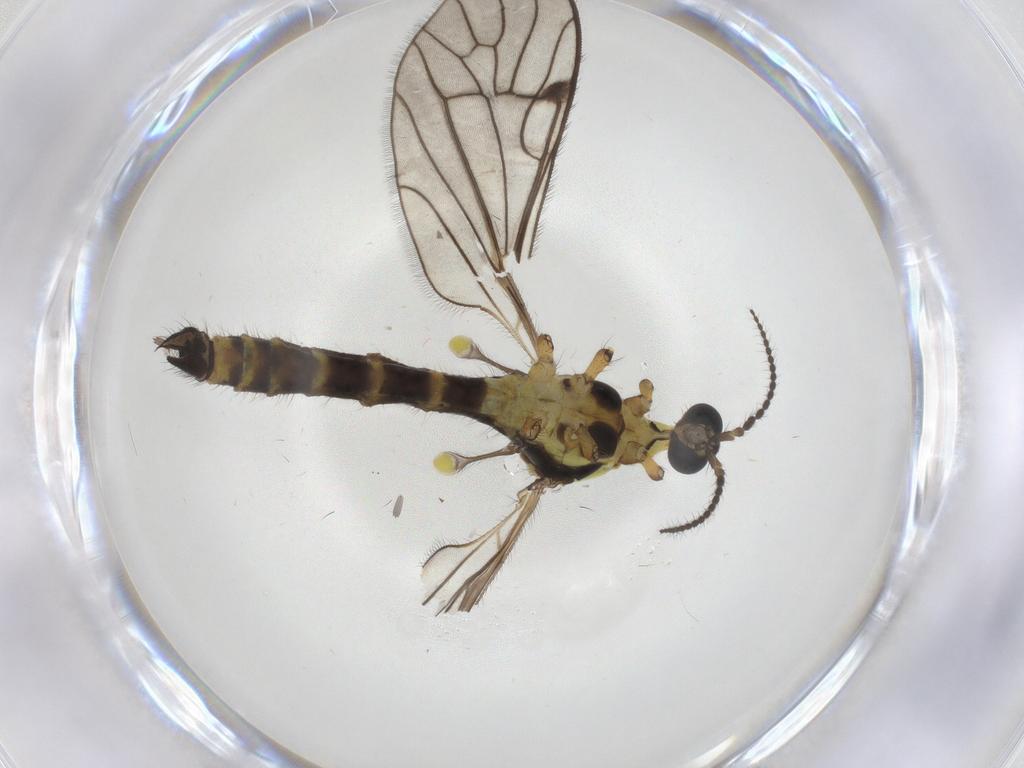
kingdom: Animalia
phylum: Arthropoda
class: Insecta
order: Diptera
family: Limoniidae
